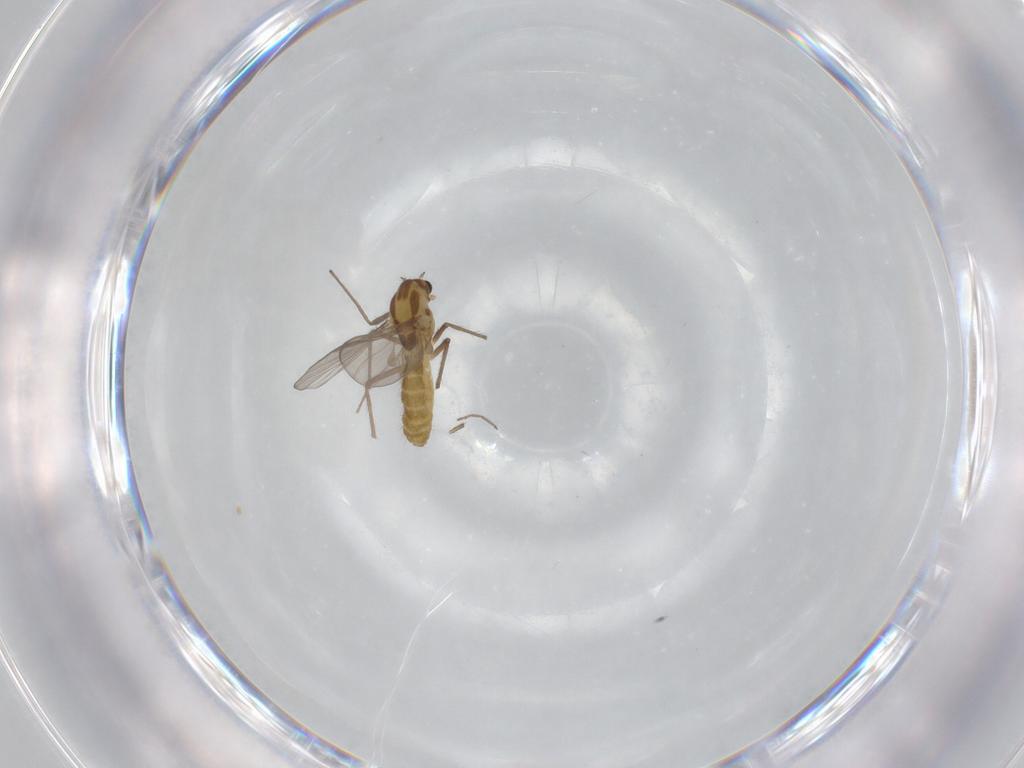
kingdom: Animalia
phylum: Arthropoda
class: Insecta
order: Diptera
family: Chironomidae
